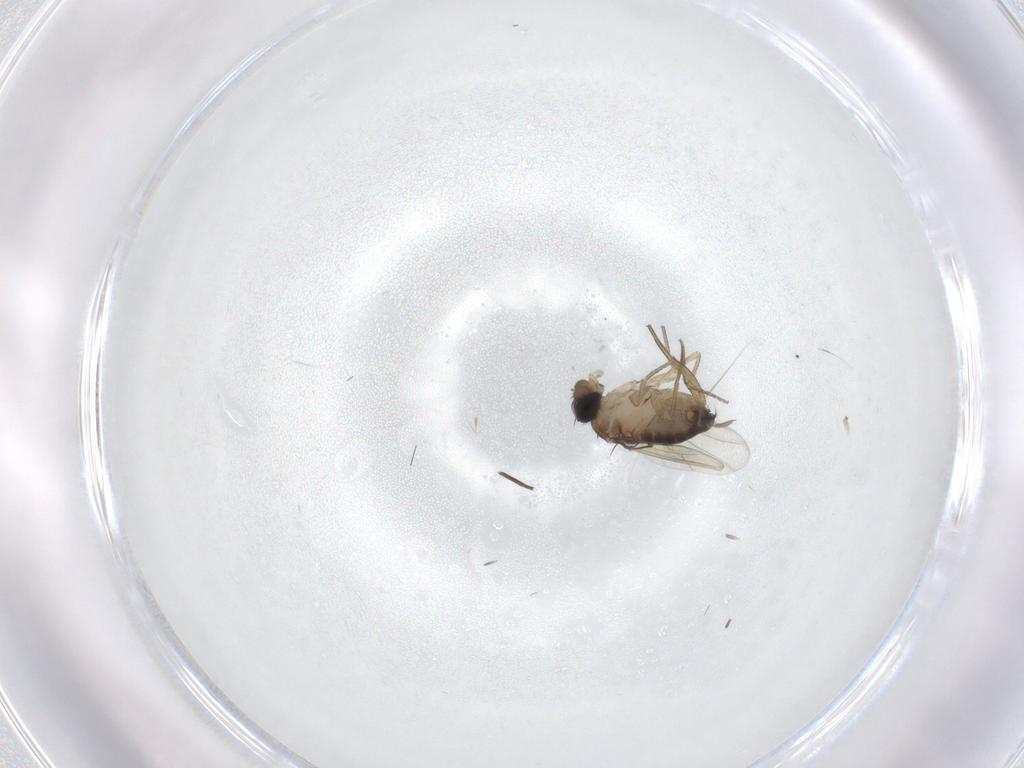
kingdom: Animalia
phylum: Arthropoda
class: Insecta
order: Diptera
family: Phoridae
